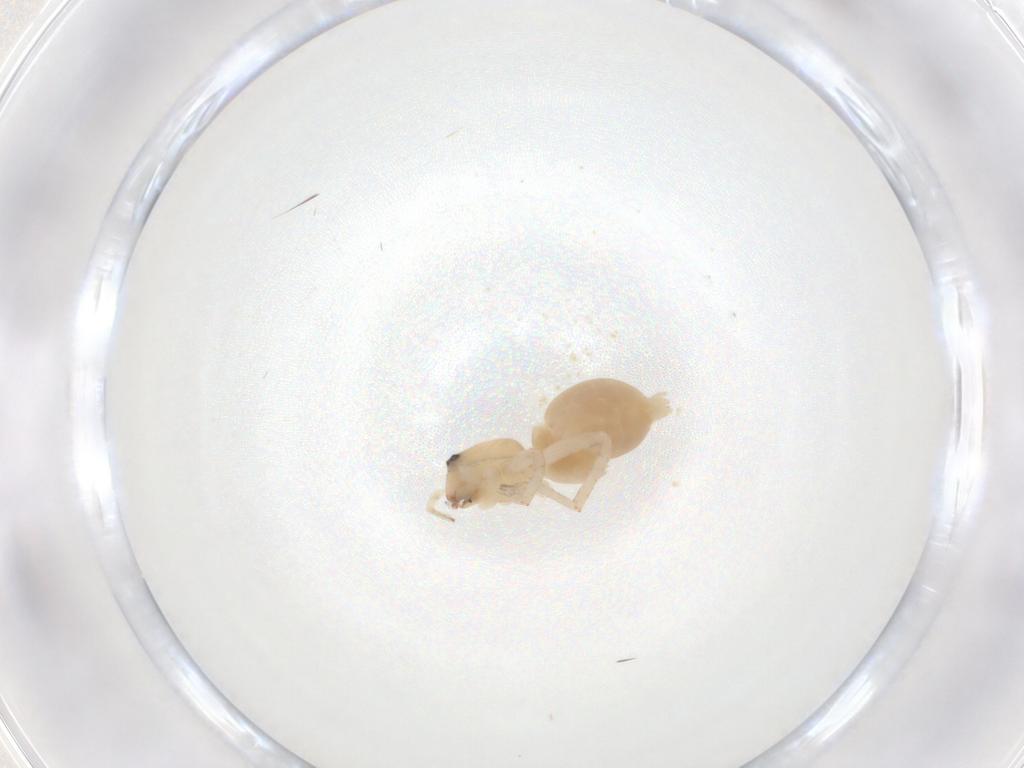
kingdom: Animalia
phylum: Arthropoda
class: Arachnida
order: Araneae
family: Anyphaenidae
